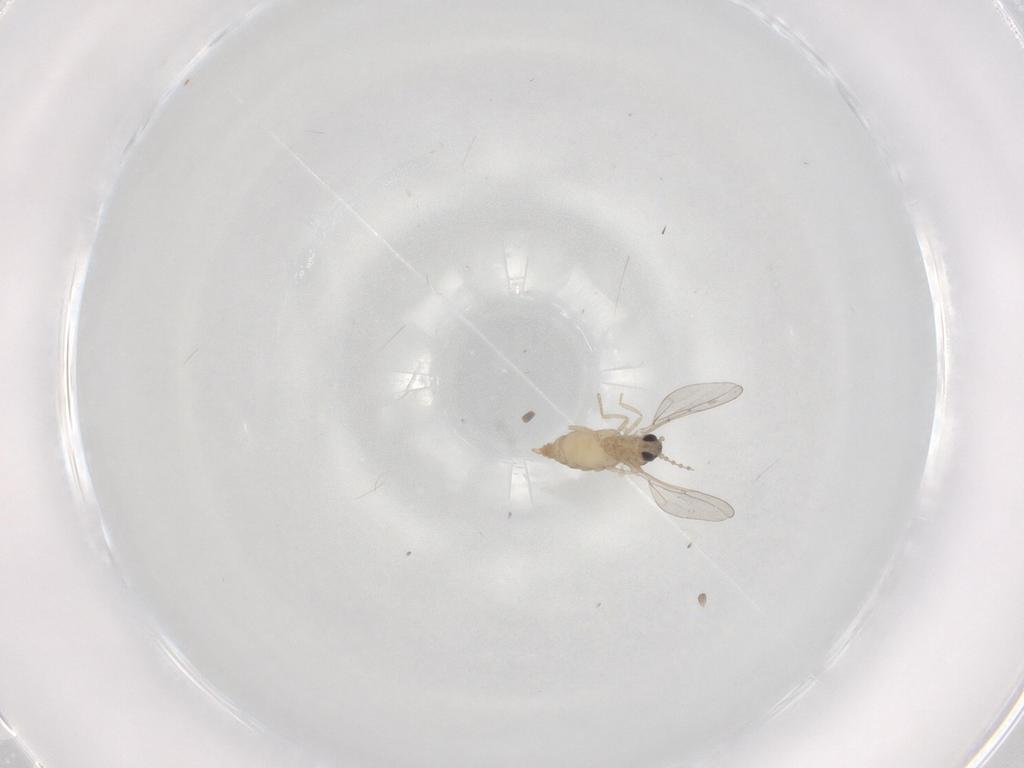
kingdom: Animalia
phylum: Arthropoda
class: Insecta
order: Diptera
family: Cecidomyiidae
